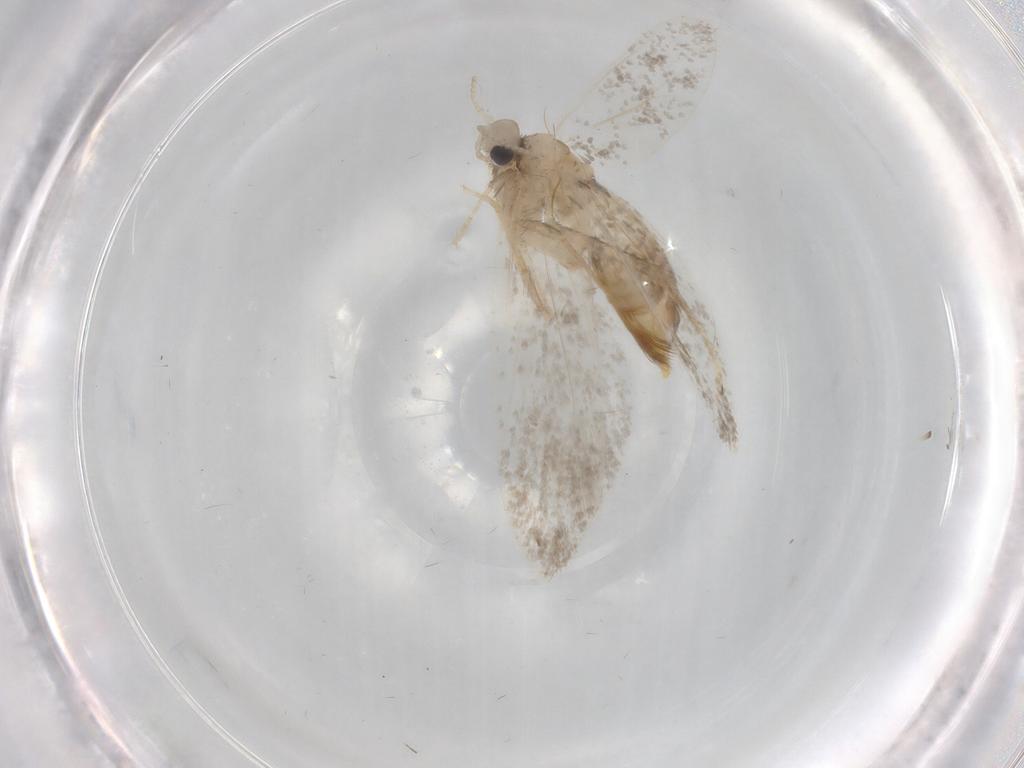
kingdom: Animalia
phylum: Arthropoda
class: Insecta
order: Lepidoptera
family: Psychidae
